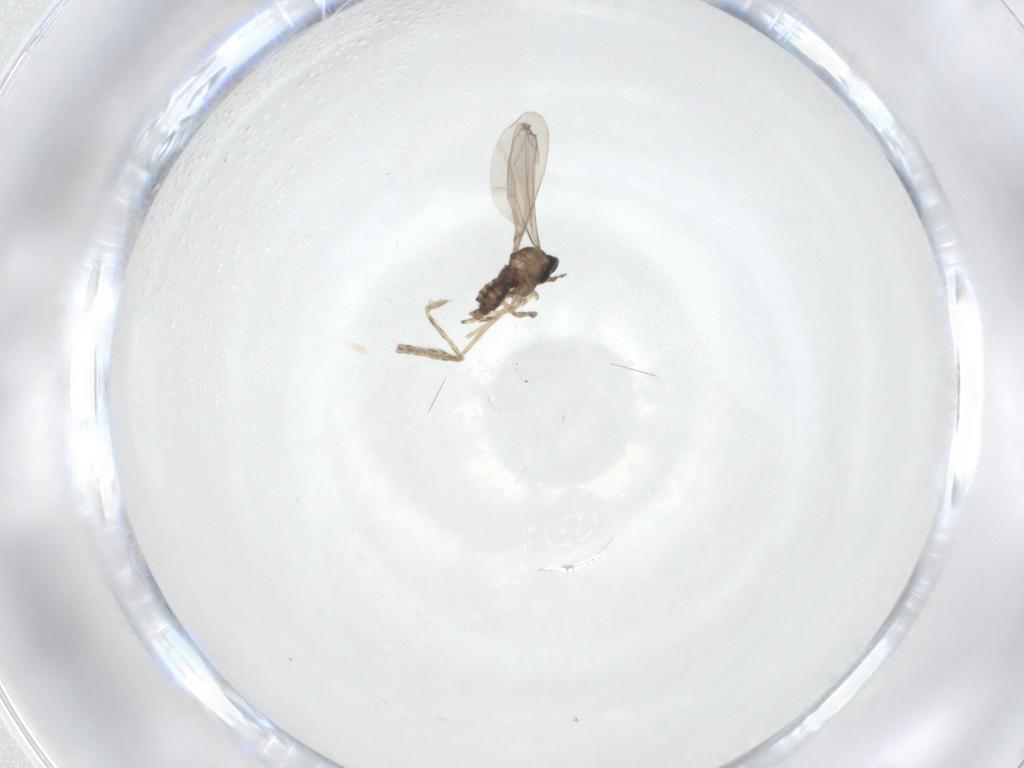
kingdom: Animalia
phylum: Arthropoda
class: Insecta
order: Diptera
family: Cecidomyiidae
